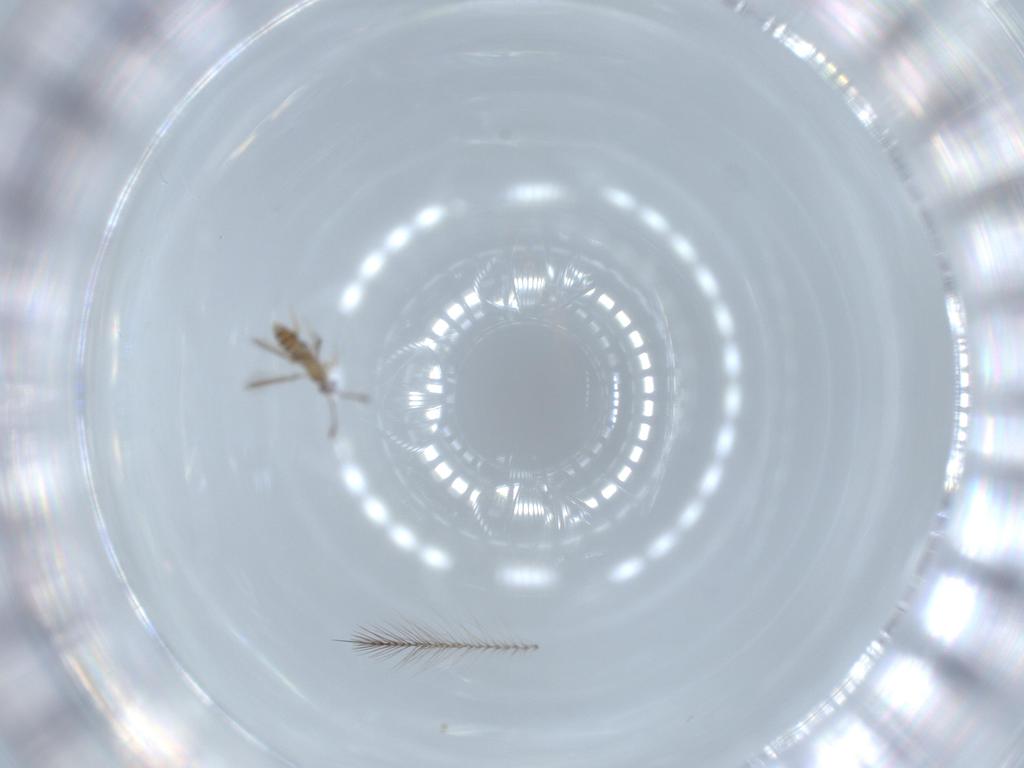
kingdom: Animalia
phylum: Arthropoda
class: Insecta
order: Hymenoptera
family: Mymaridae
